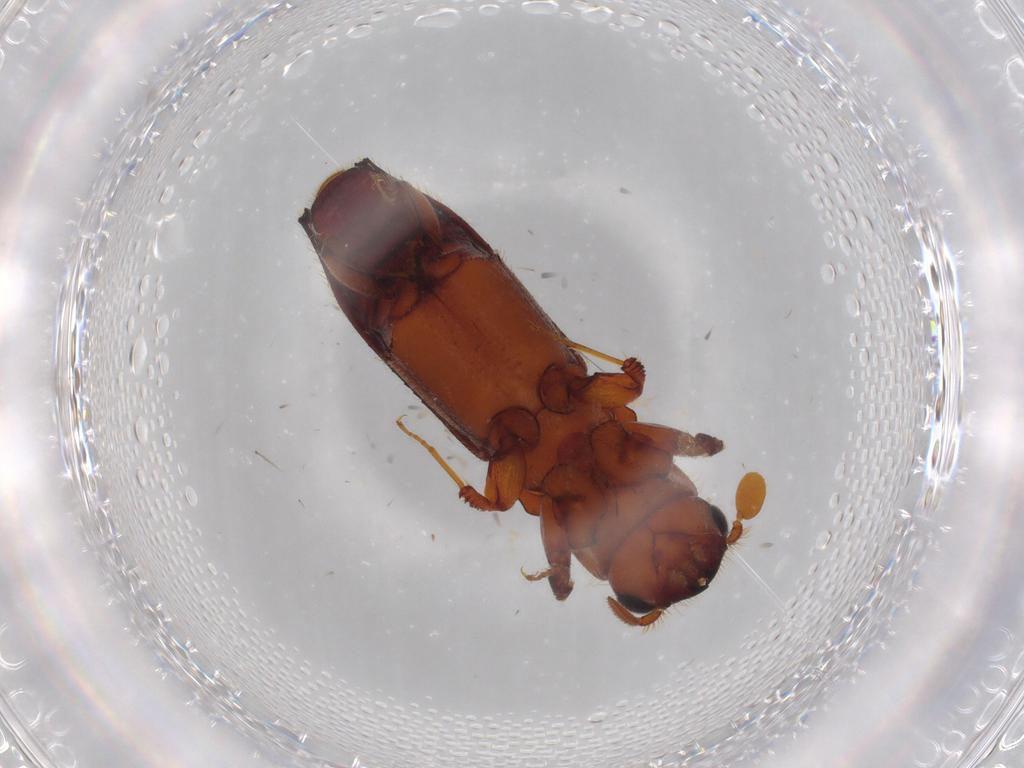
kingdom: Animalia
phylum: Arthropoda
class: Insecta
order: Coleoptera
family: Curculionidae
